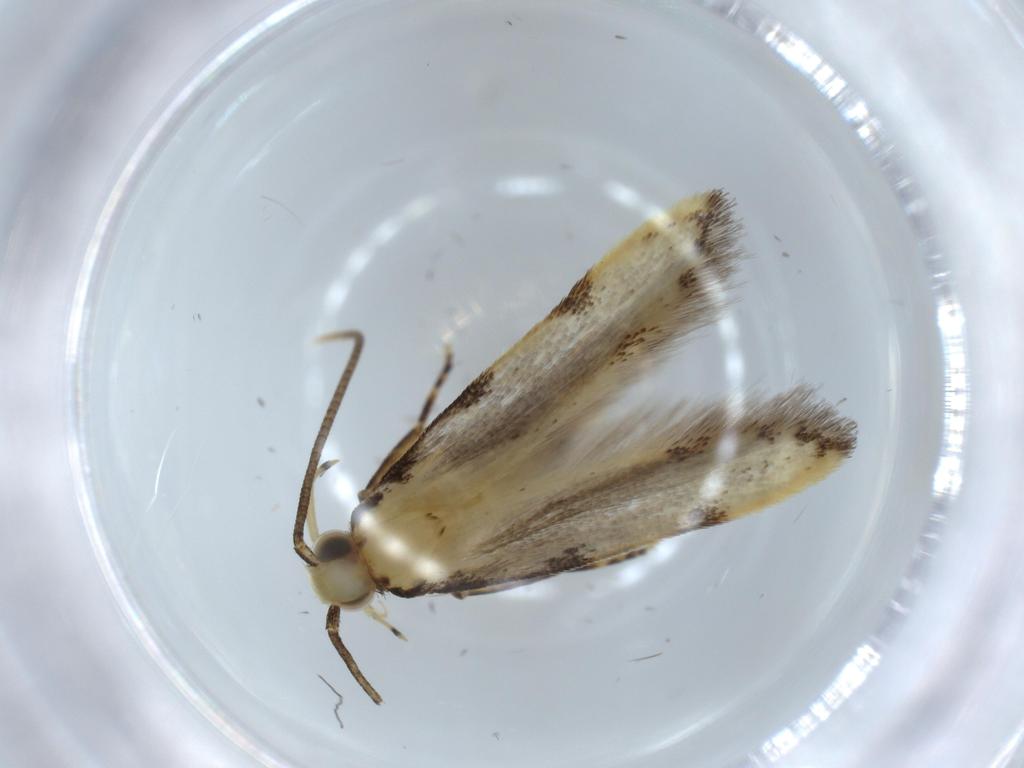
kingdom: Animalia
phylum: Arthropoda
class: Insecta
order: Lepidoptera
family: Autostichidae
